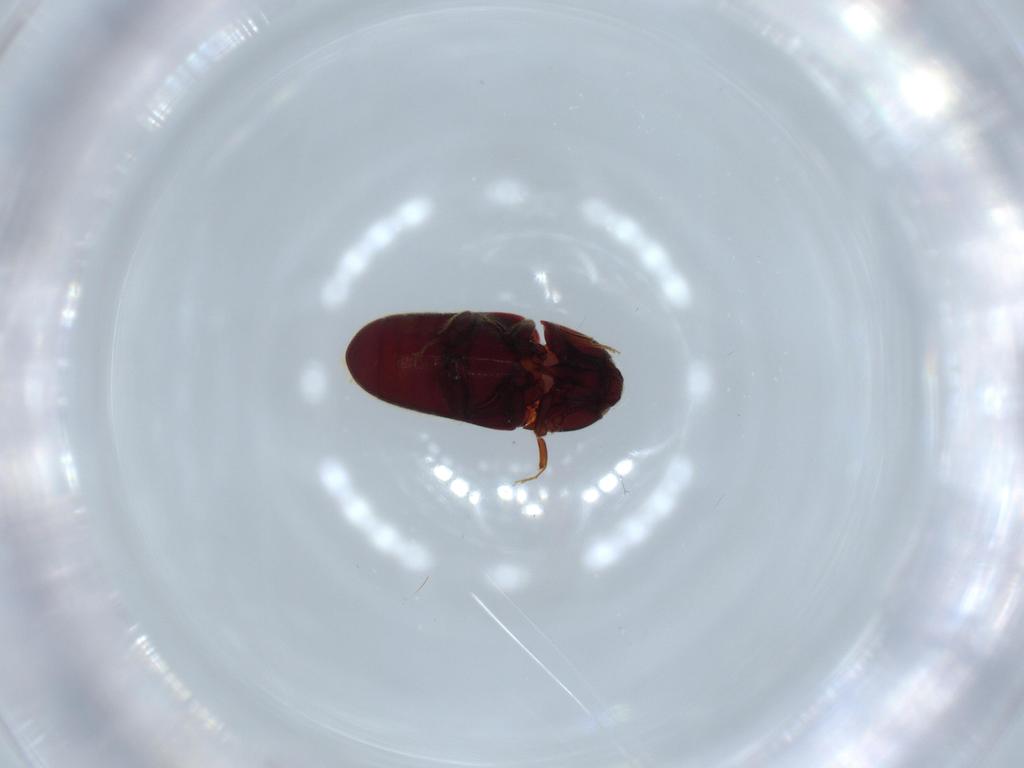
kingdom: Animalia
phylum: Arthropoda
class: Insecta
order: Coleoptera
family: Throscidae
